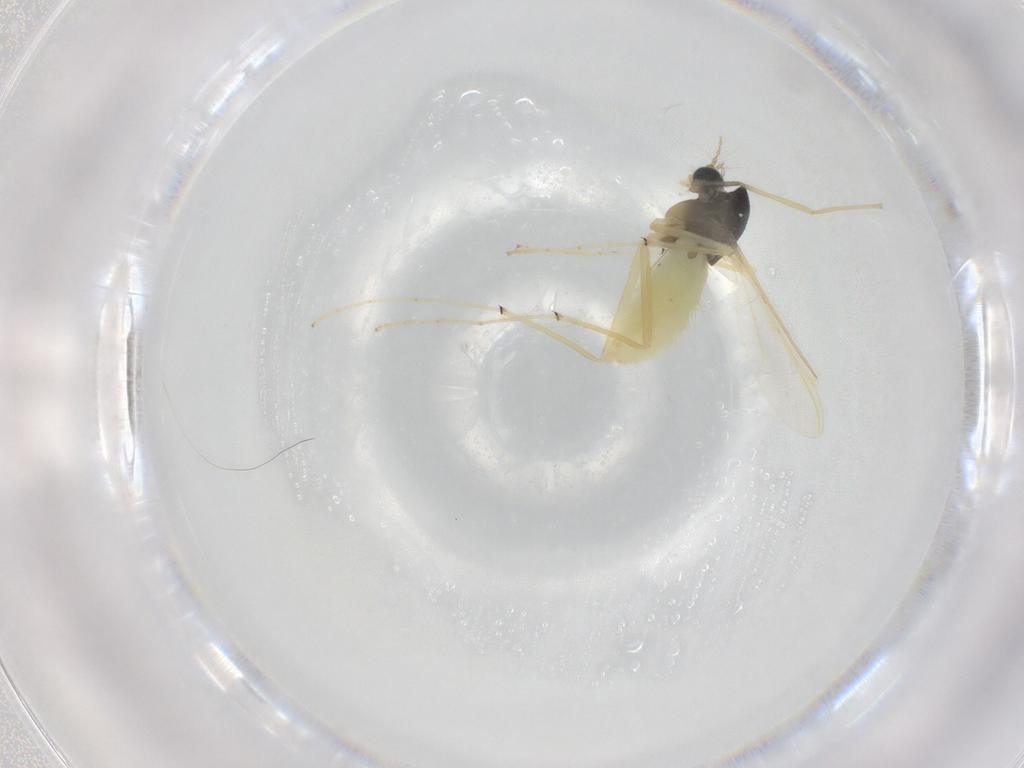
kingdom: Animalia
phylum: Arthropoda
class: Insecta
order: Diptera
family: Chironomidae
